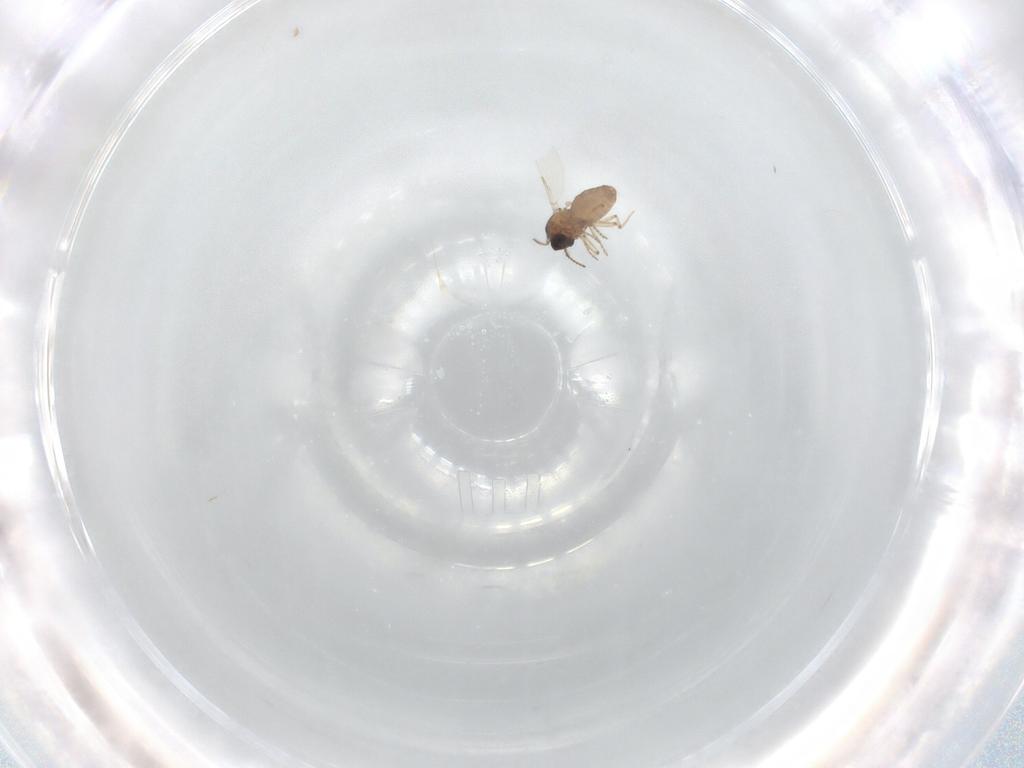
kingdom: Animalia
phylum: Arthropoda
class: Insecta
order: Diptera
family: Ceratopogonidae
